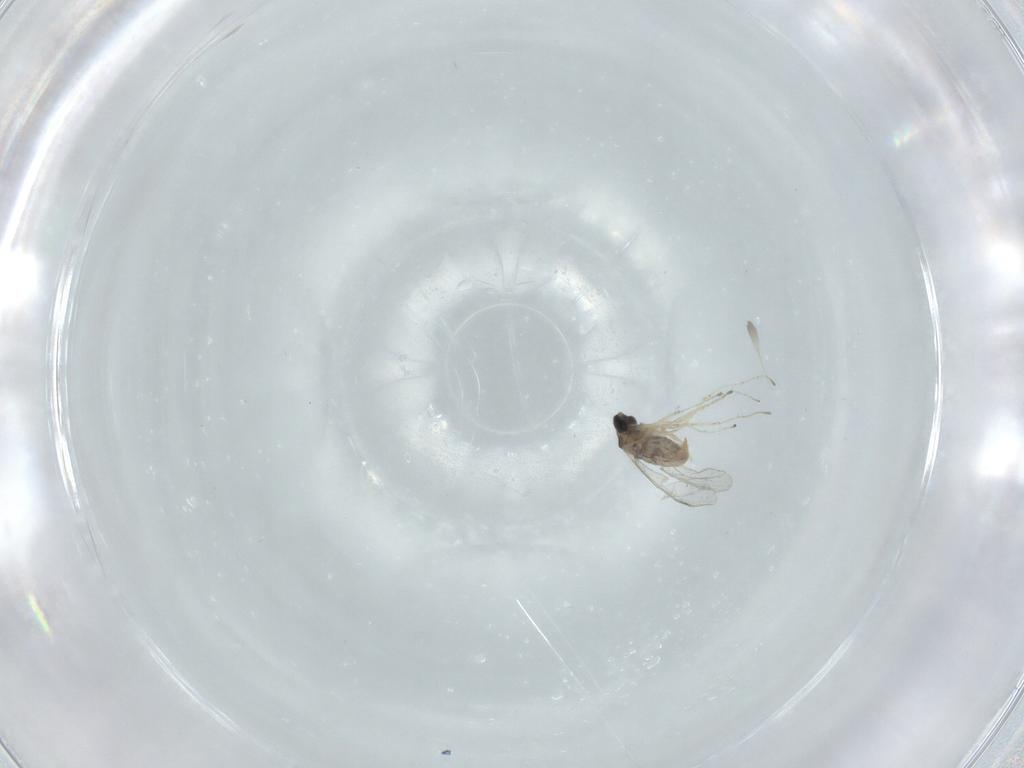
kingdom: Animalia
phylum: Arthropoda
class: Insecta
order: Diptera
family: Cecidomyiidae
